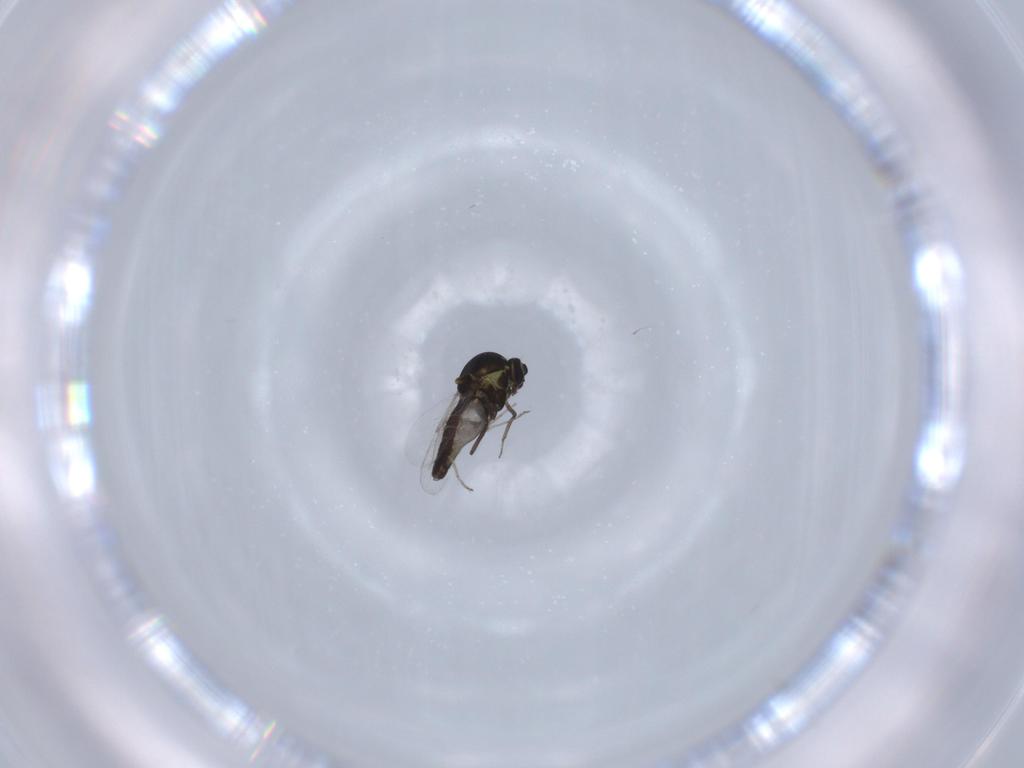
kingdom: Animalia
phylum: Arthropoda
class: Insecta
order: Diptera
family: Ceratopogonidae
